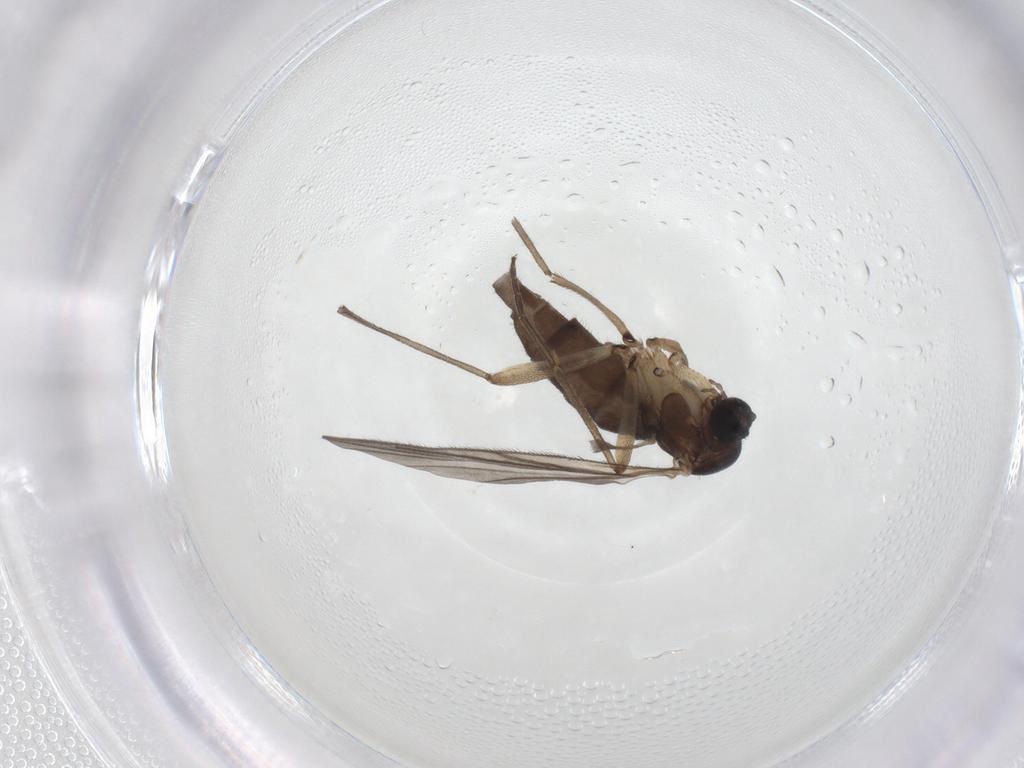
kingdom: Animalia
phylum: Arthropoda
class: Insecta
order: Diptera
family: Sciaridae
